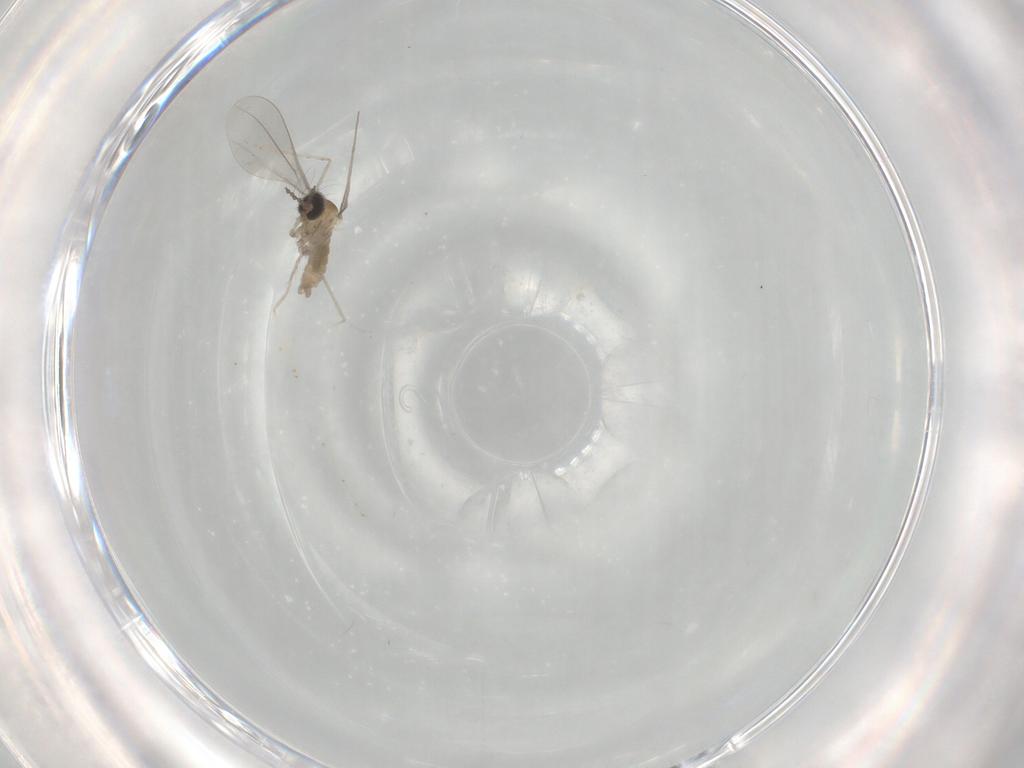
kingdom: Animalia
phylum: Arthropoda
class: Insecta
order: Diptera
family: Cecidomyiidae
